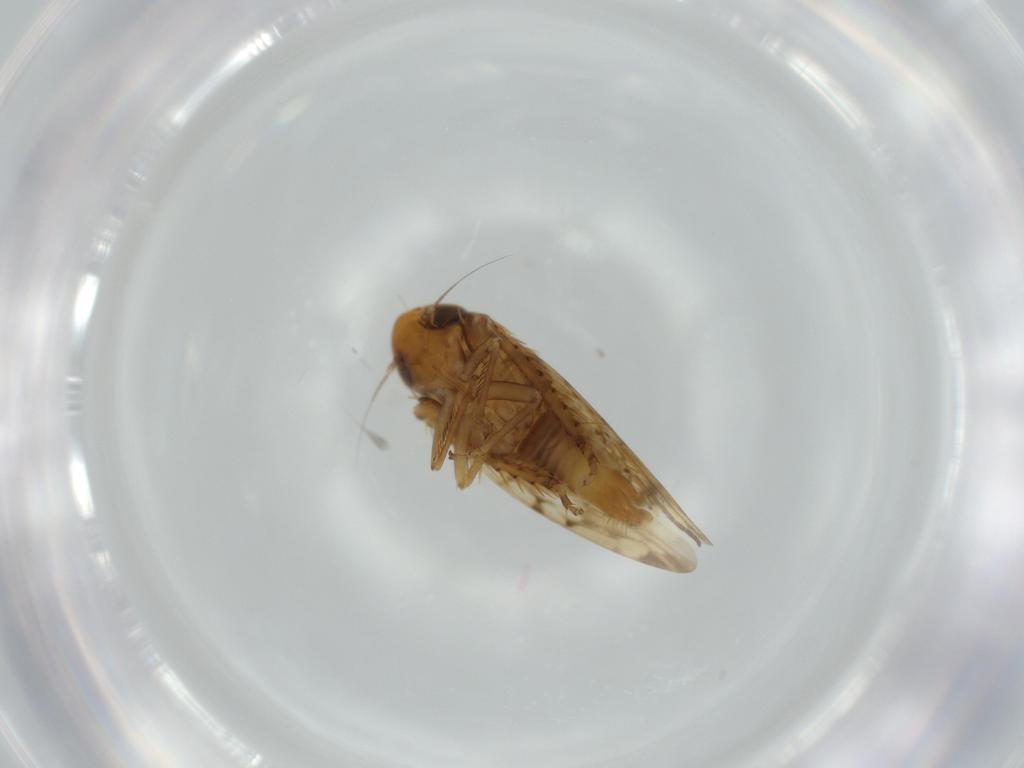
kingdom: Animalia
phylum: Arthropoda
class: Insecta
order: Hemiptera
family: Cicadellidae
